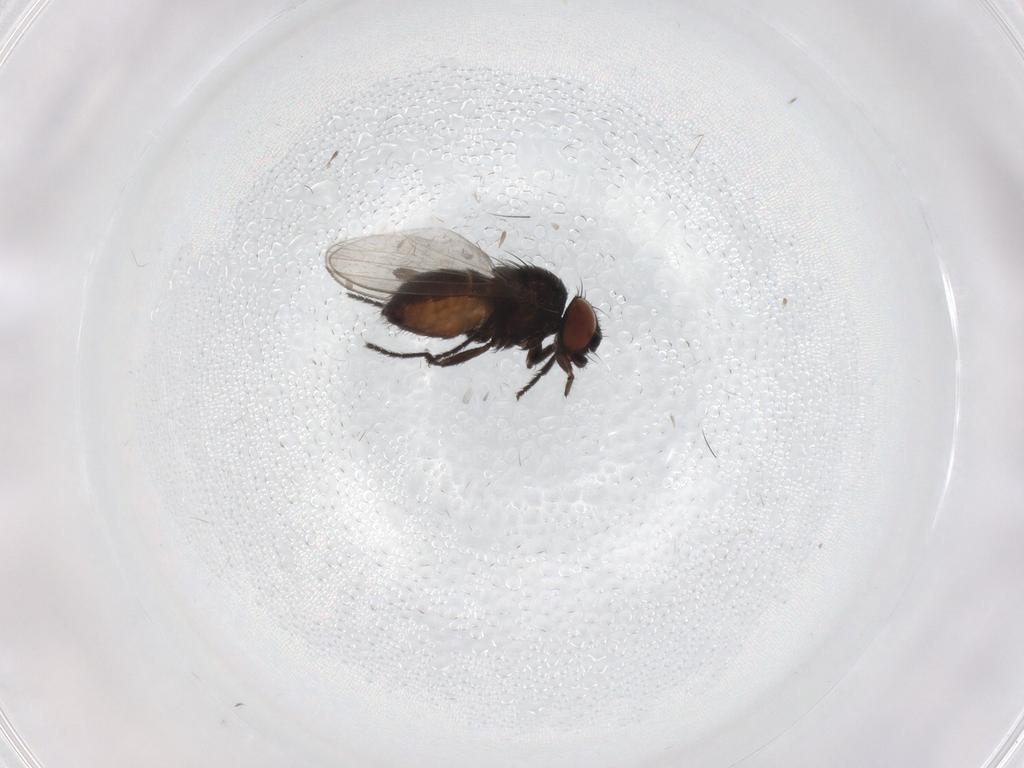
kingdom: Animalia
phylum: Arthropoda
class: Insecta
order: Diptera
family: Milichiidae
